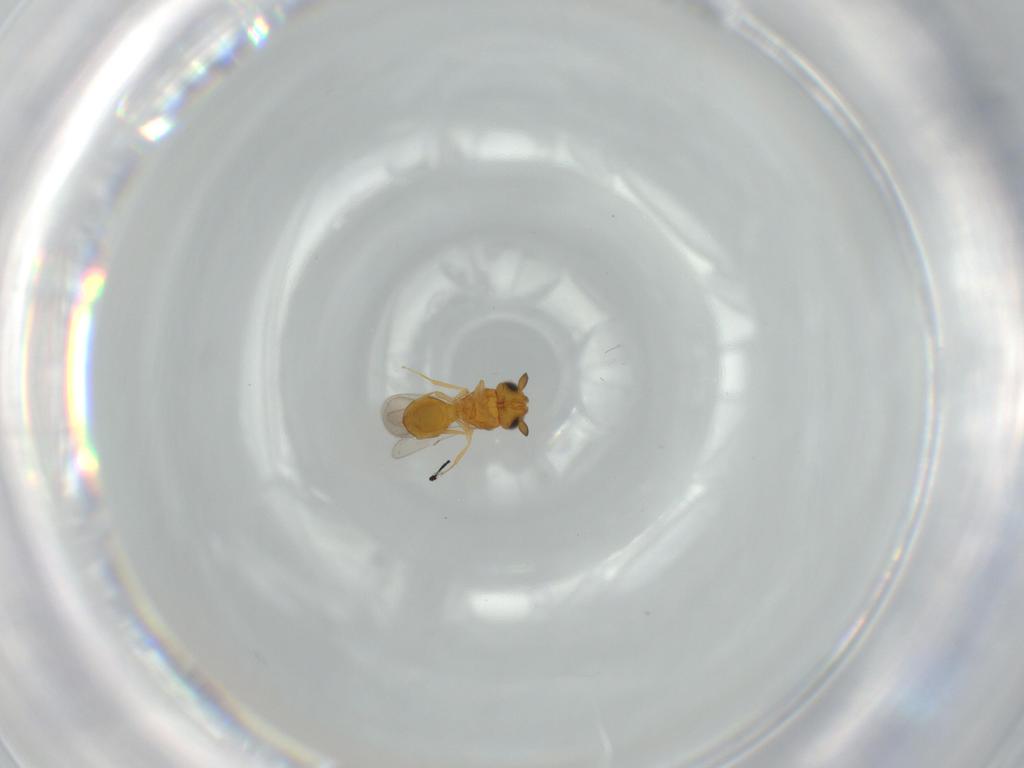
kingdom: Animalia
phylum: Arthropoda
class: Insecta
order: Hymenoptera
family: Scelionidae
